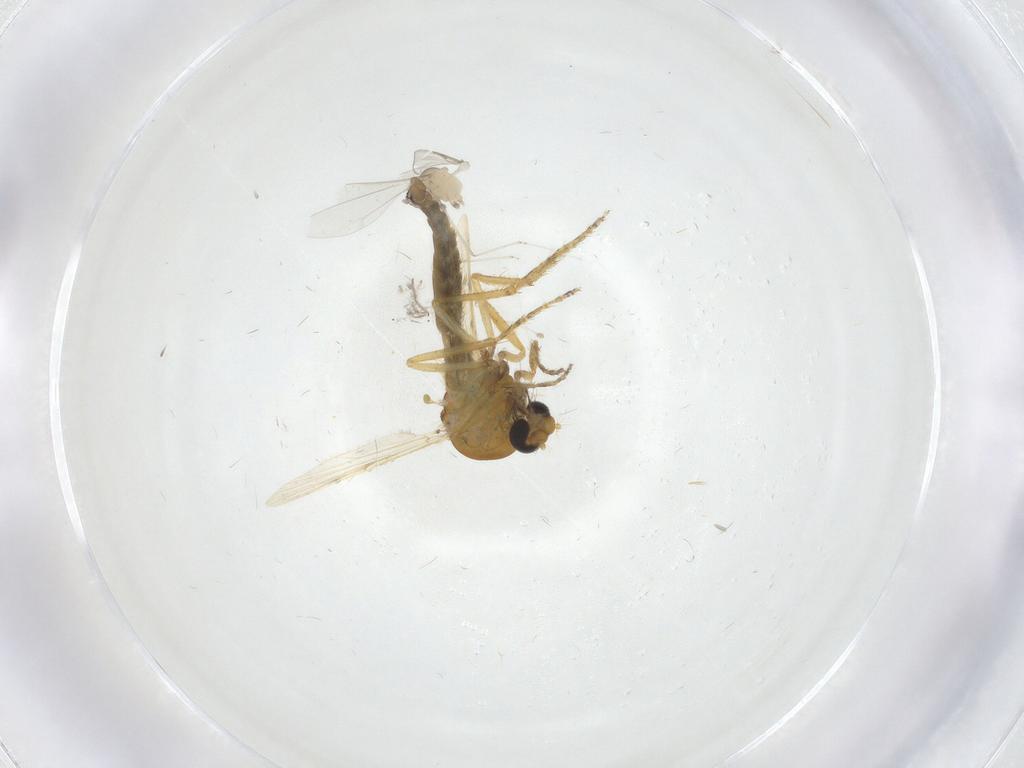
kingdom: Animalia
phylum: Arthropoda
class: Insecta
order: Diptera
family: Ceratopogonidae
